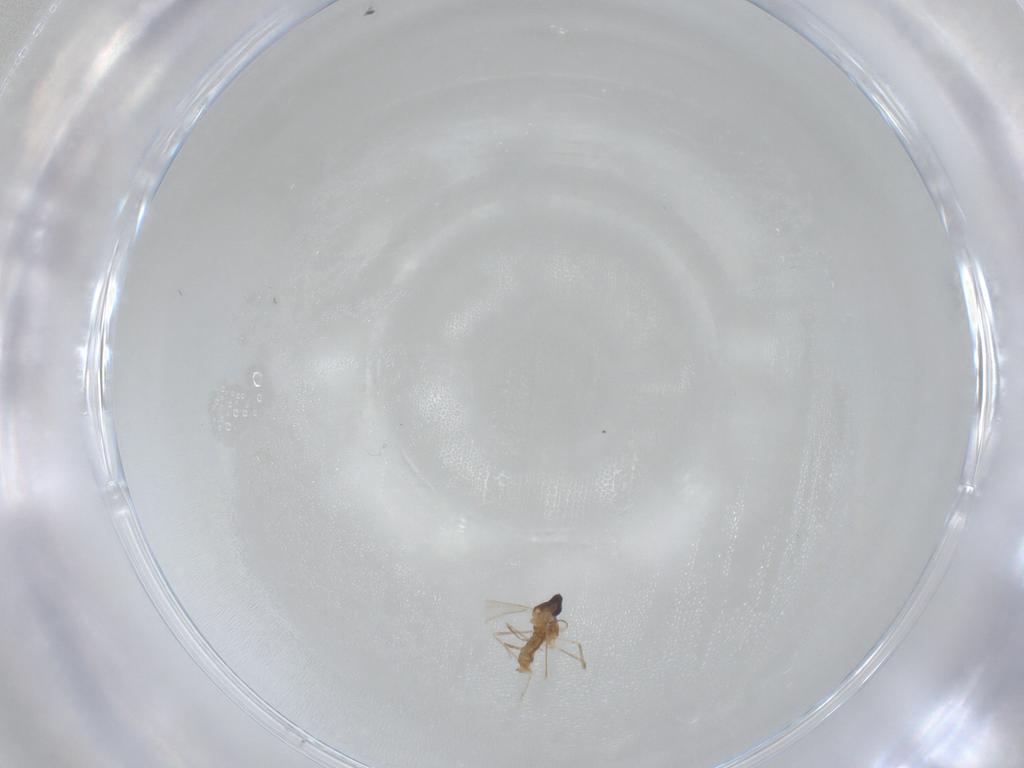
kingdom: Animalia
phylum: Arthropoda
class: Insecta
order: Diptera
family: Cecidomyiidae
